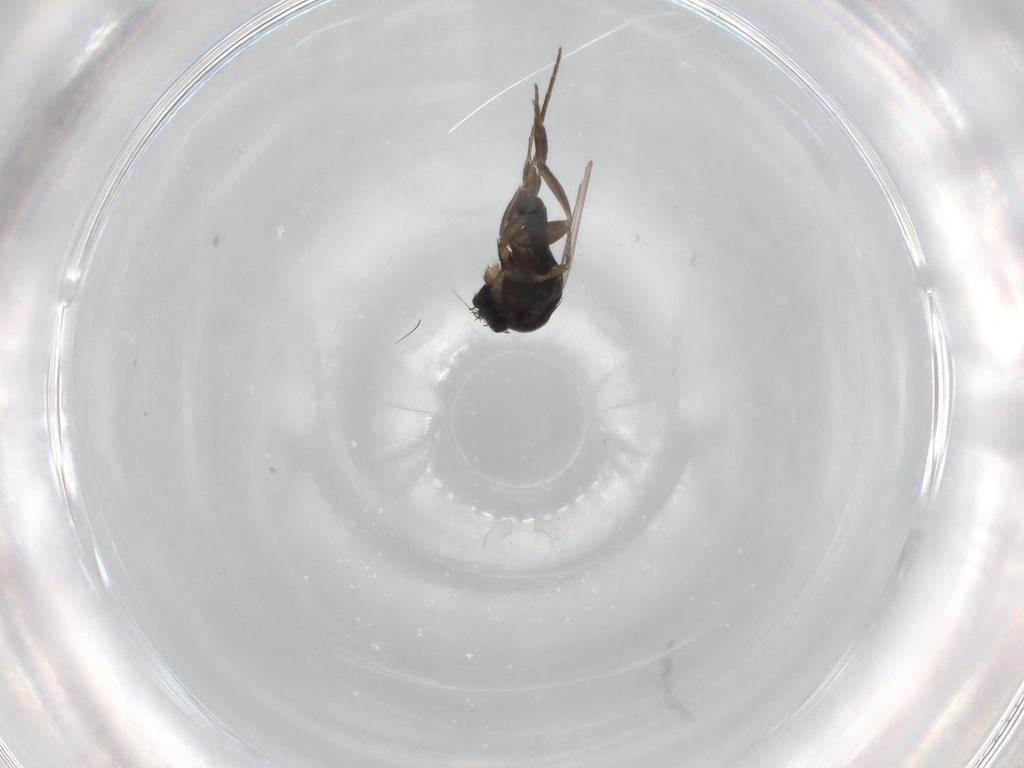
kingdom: Animalia
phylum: Arthropoda
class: Insecta
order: Diptera
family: Phoridae
